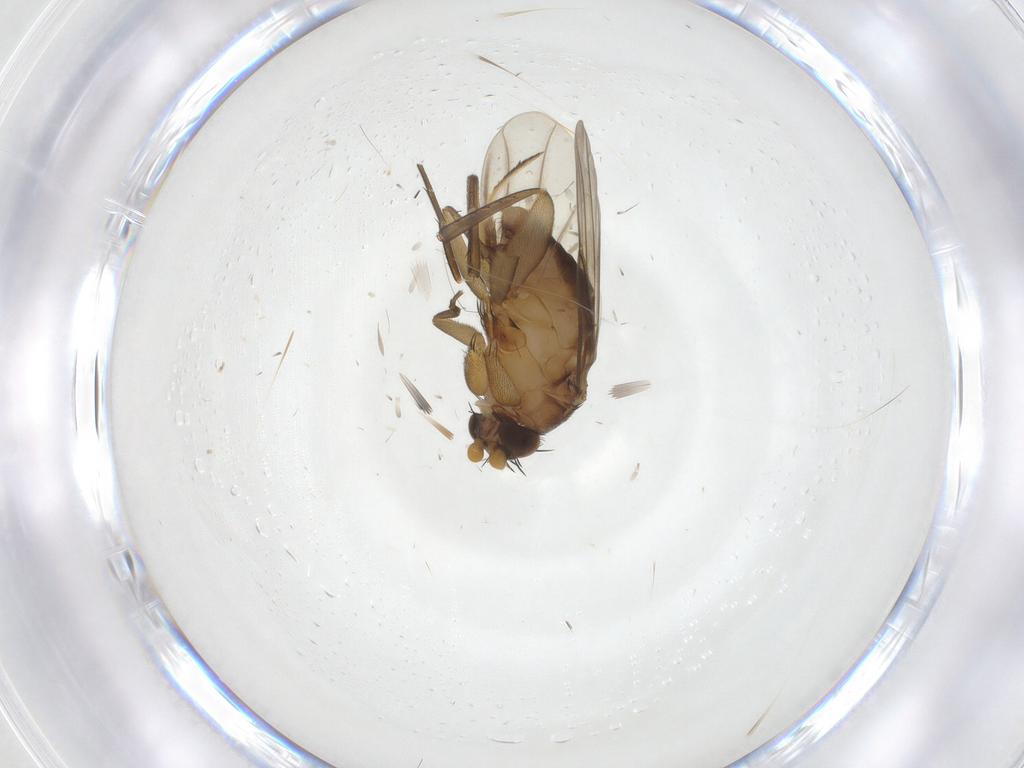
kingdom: Animalia
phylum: Arthropoda
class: Insecta
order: Diptera
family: Phoridae
